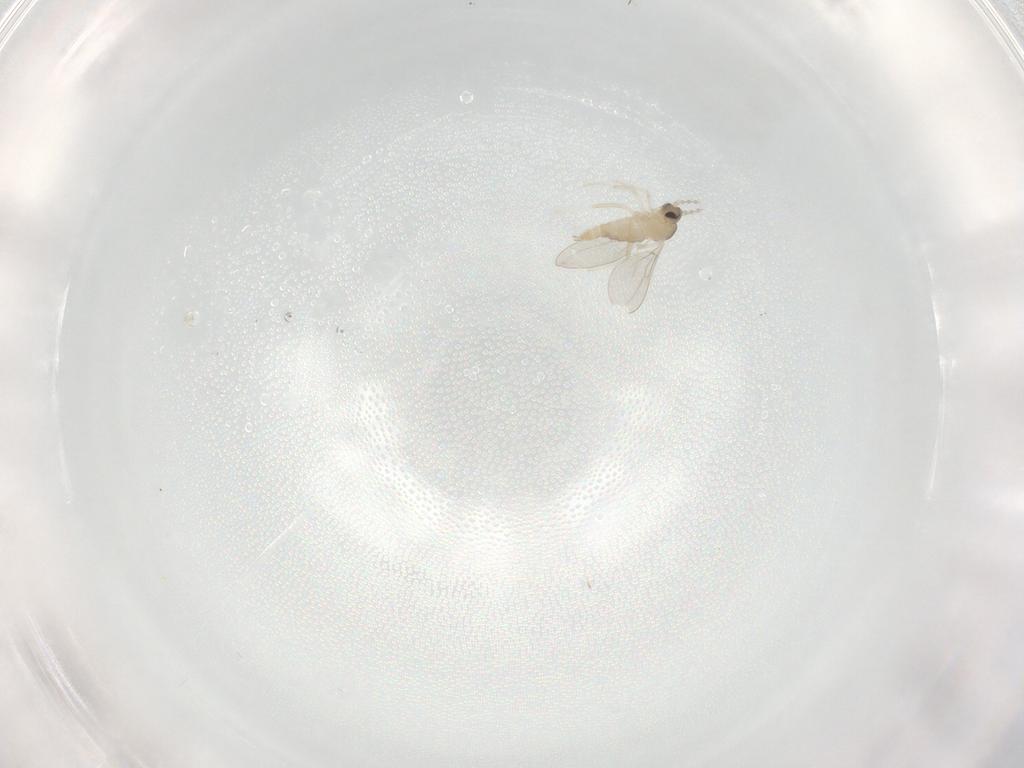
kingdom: Animalia
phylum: Arthropoda
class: Insecta
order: Diptera
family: Cecidomyiidae
